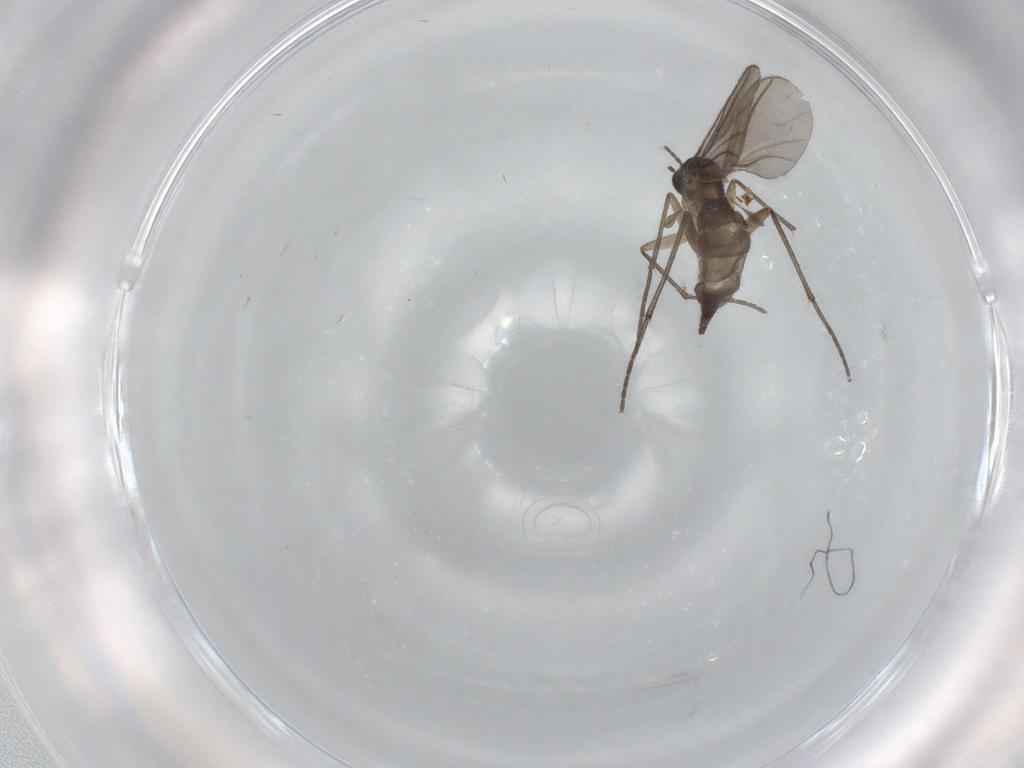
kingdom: Animalia
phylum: Arthropoda
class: Insecta
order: Diptera
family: Sciaridae
